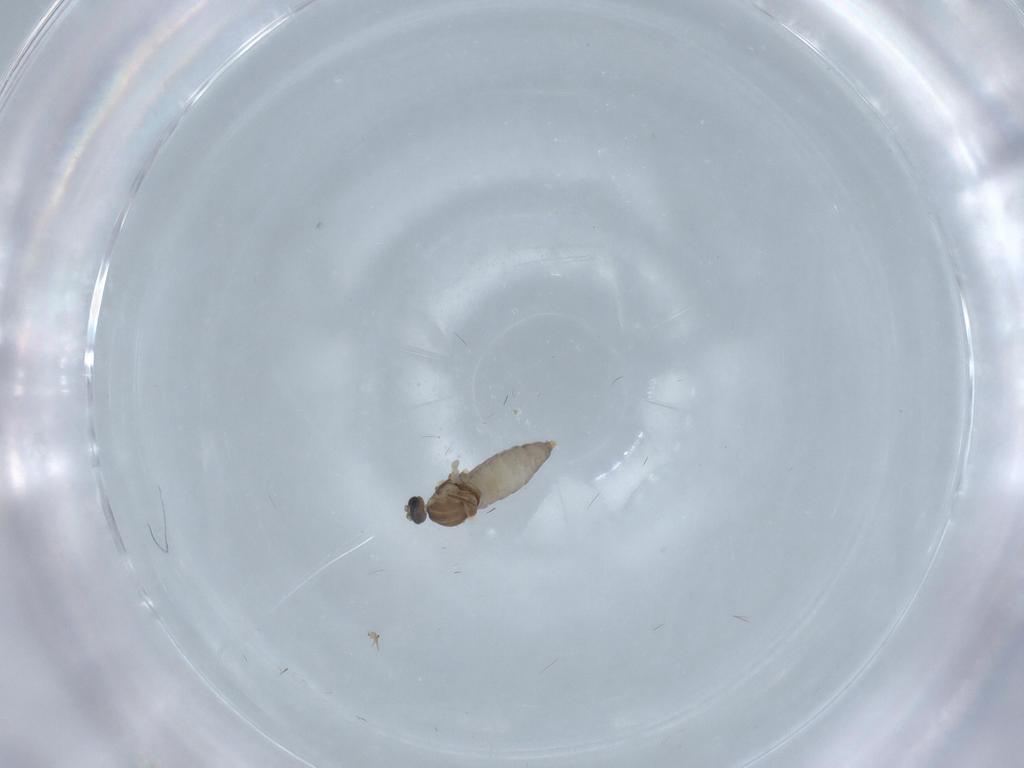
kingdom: Animalia
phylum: Arthropoda
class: Insecta
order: Diptera
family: Cecidomyiidae
